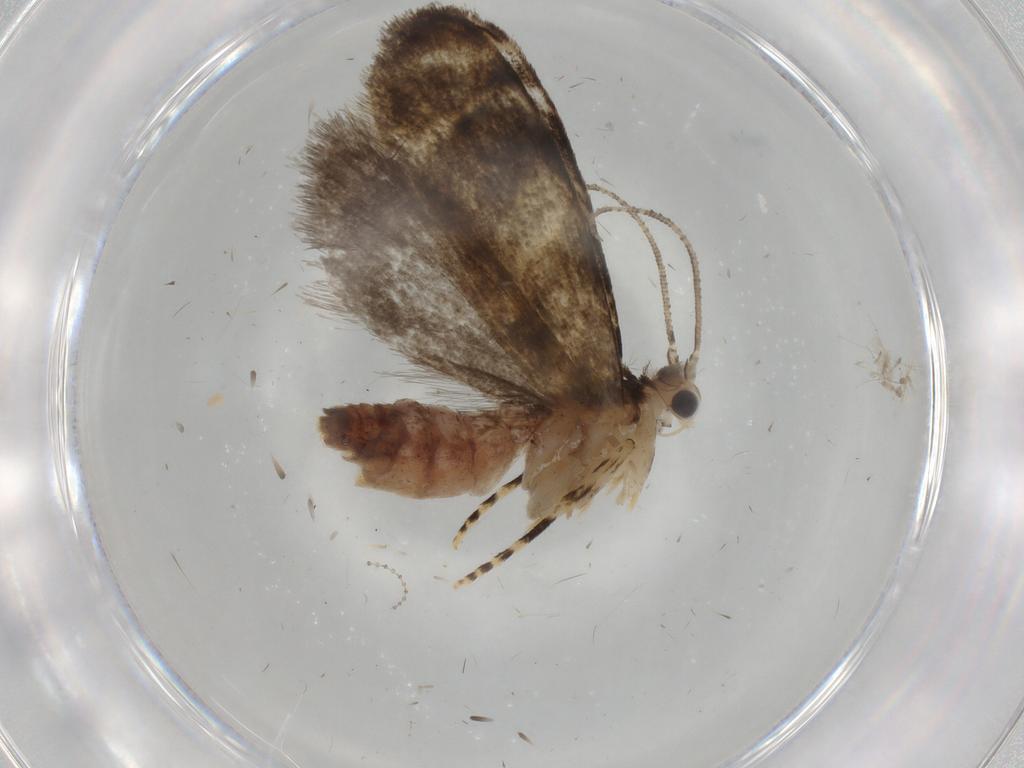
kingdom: Animalia
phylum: Arthropoda
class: Insecta
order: Lepidoptera
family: Tineidae
